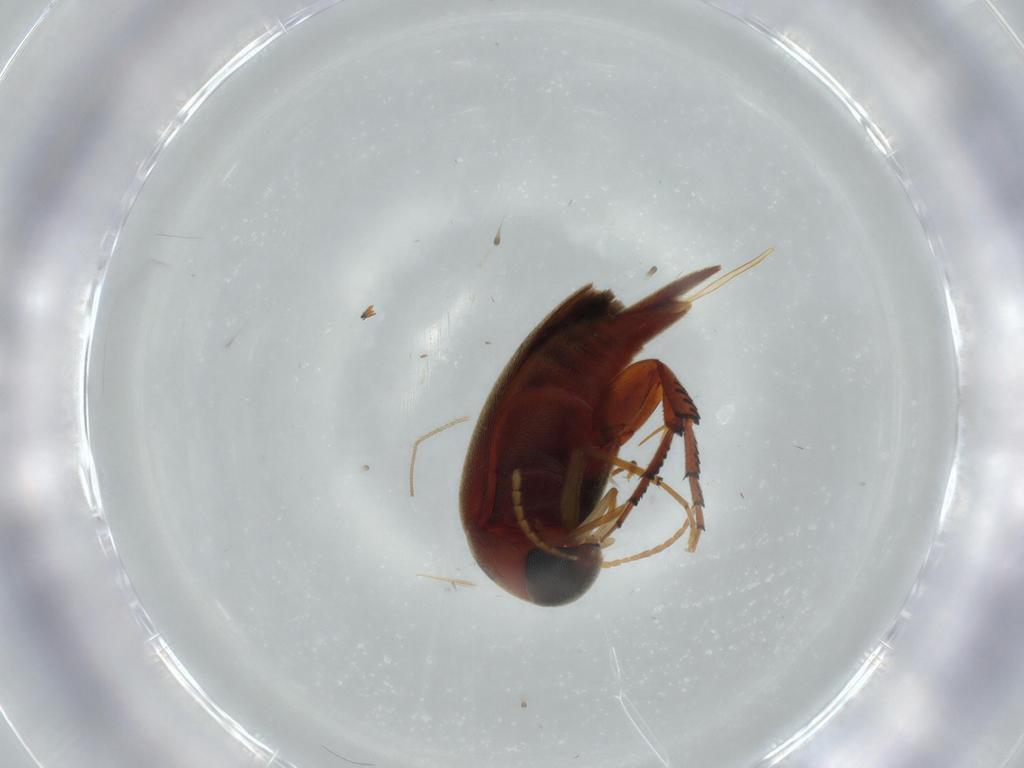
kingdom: Animalia
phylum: Arthropoda
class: Insecta
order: Coleoptera
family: Mordellidae
